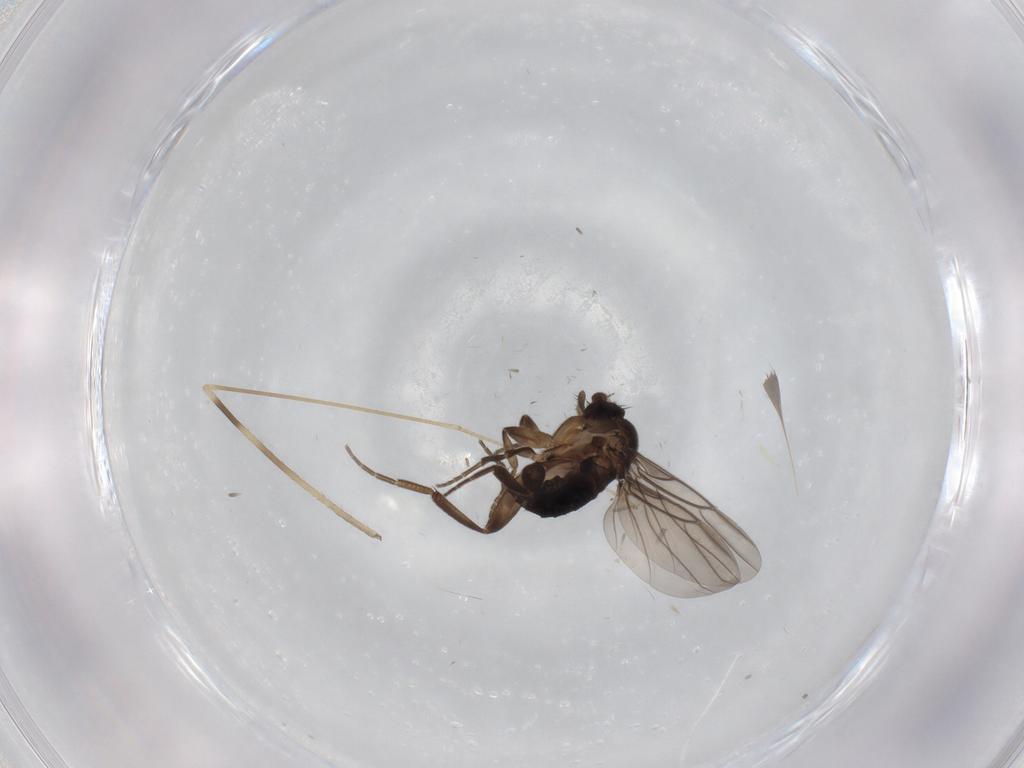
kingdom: Animalia
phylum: Arthropoda
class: Insecta
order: Diptera
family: Phoridae
